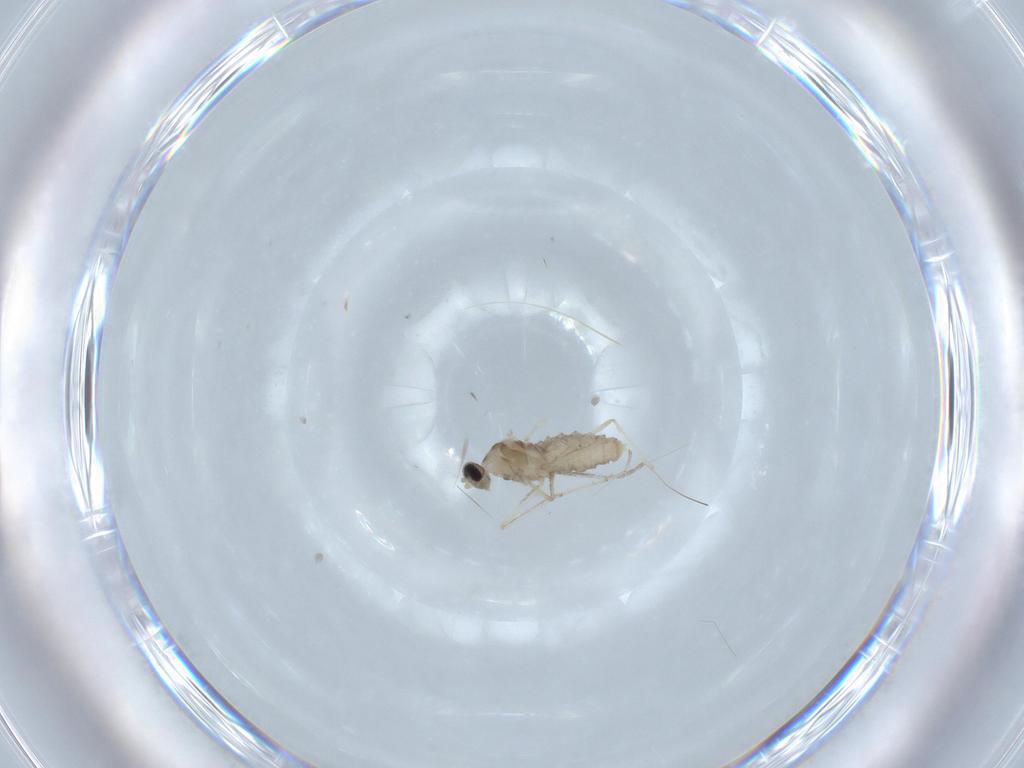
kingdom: Animalia
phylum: Arthropoda
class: Insecta
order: Diptera
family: Cecidomyiidae
